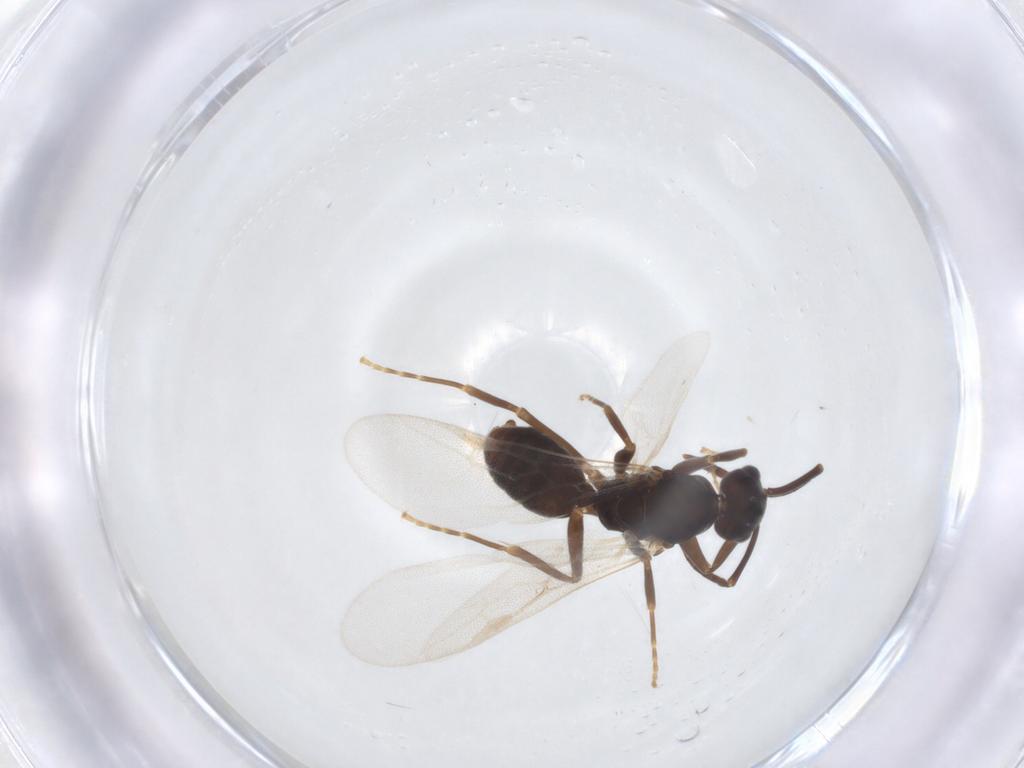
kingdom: Animalia
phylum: Arthropoda
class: Insecta
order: Hymenoptera
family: Formicidae
